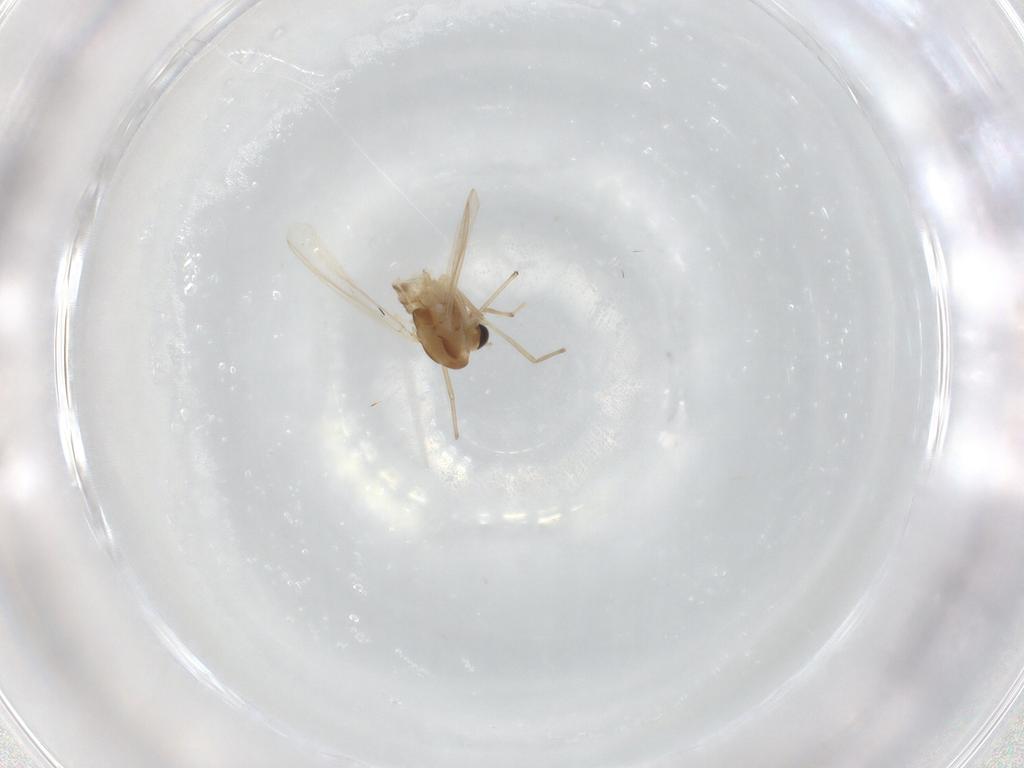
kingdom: Animalia
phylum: Arthropoda
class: Insecta
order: Diptera
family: Chironomidae
